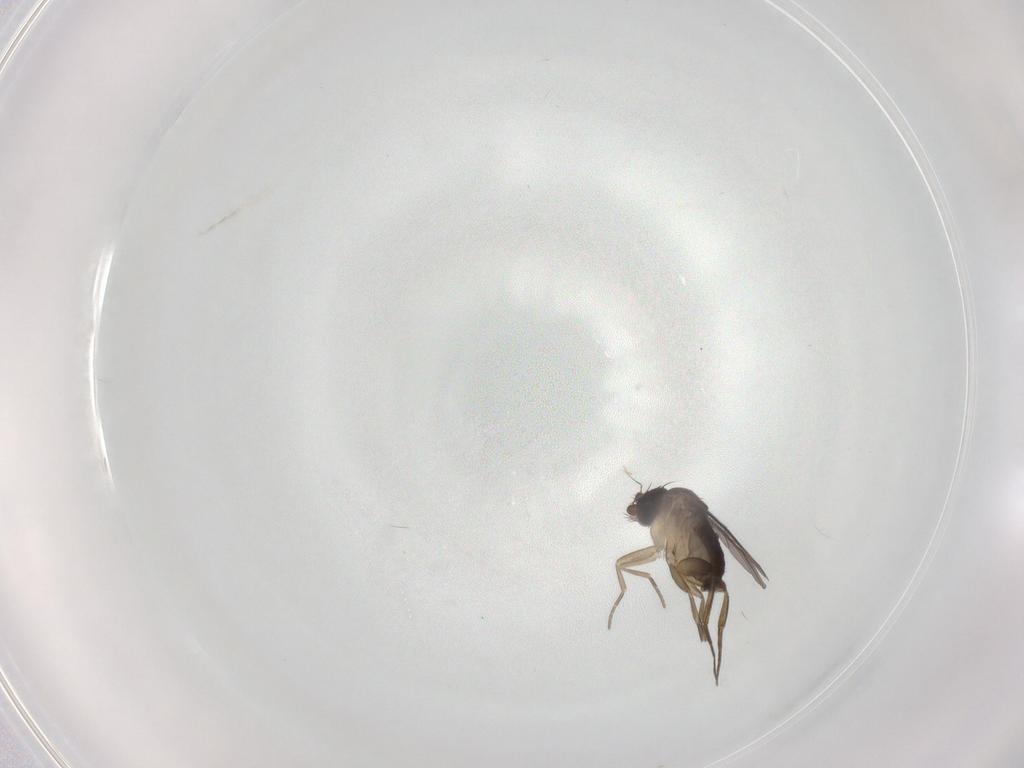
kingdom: Animalia
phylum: Arthropoda
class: Insecta
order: Diptera
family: Phoridae
